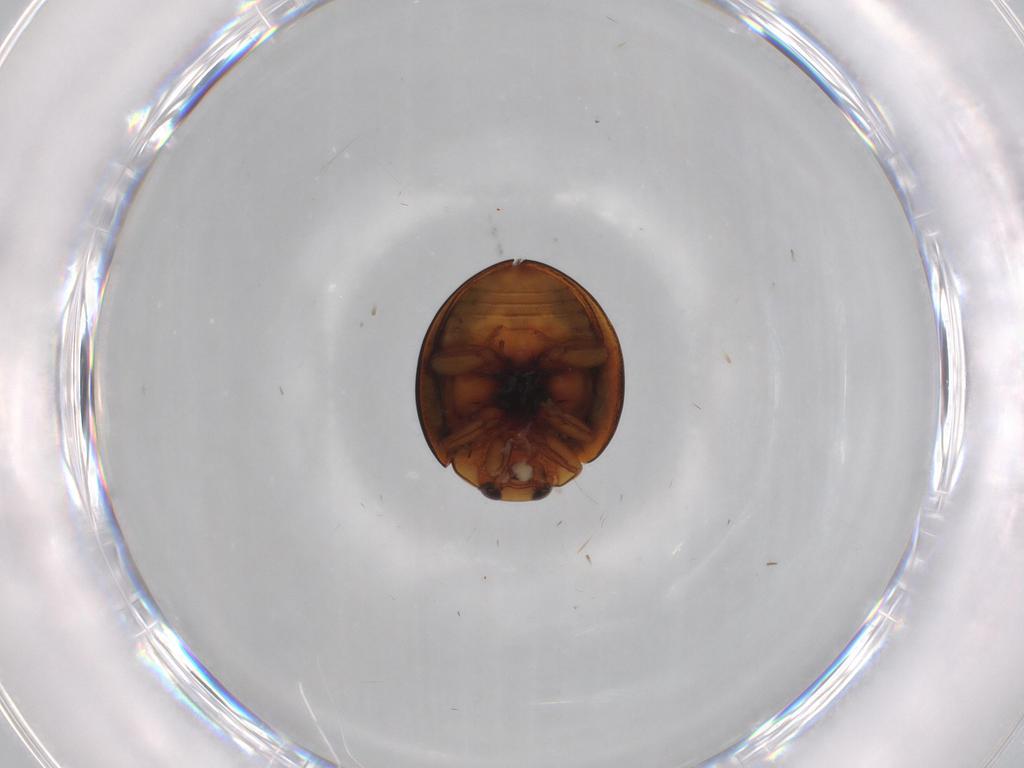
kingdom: Animalia
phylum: Arthropoda
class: Insecta
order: Coleoptera
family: Coccinellidae
